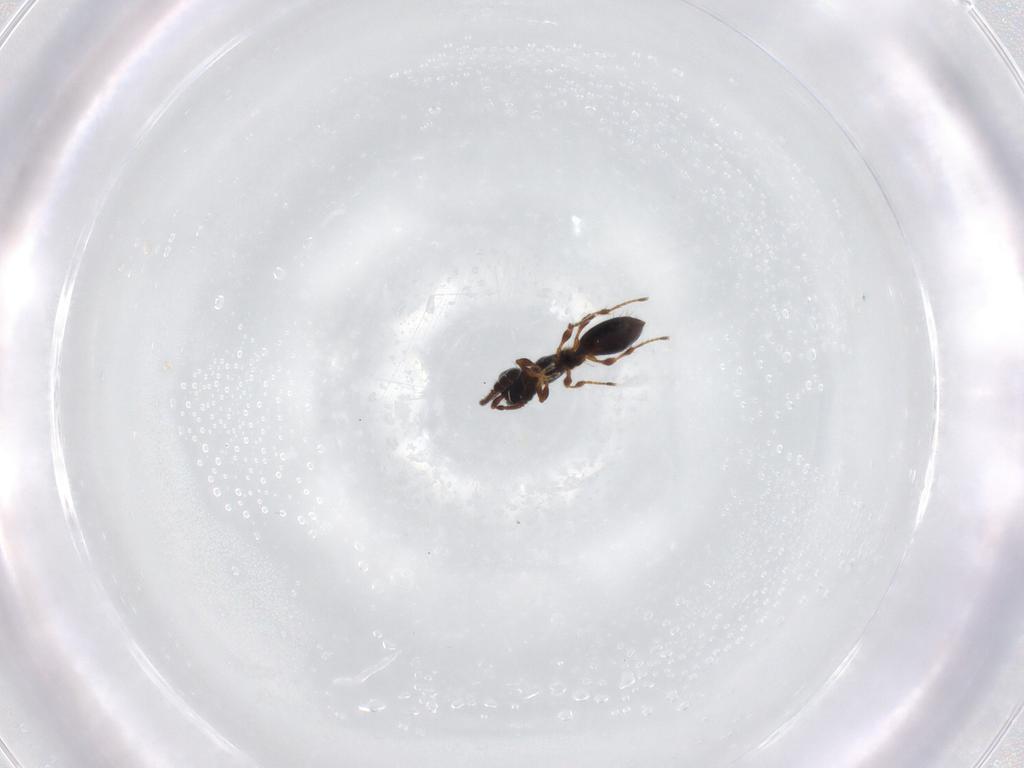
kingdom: Animalia
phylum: Arthropoda
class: Insecta
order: Hymenoptera
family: Diapriidae
